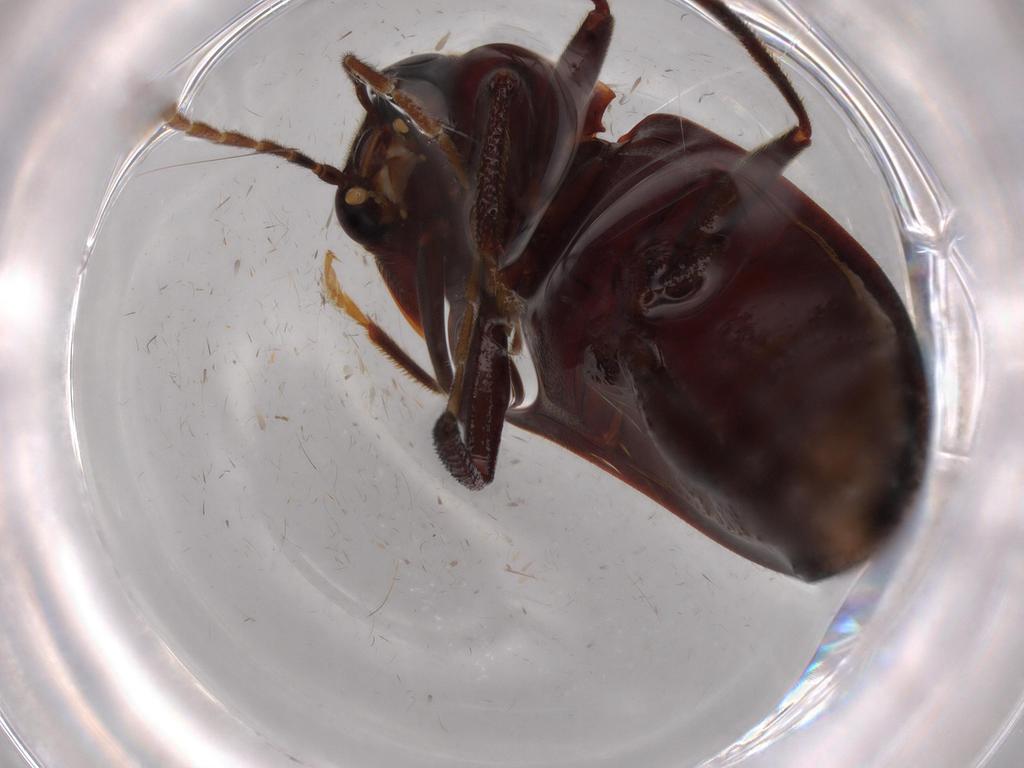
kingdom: Animalia
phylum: Arthropoda
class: Insecta
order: Coleoptera
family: Ptilodactylidae
